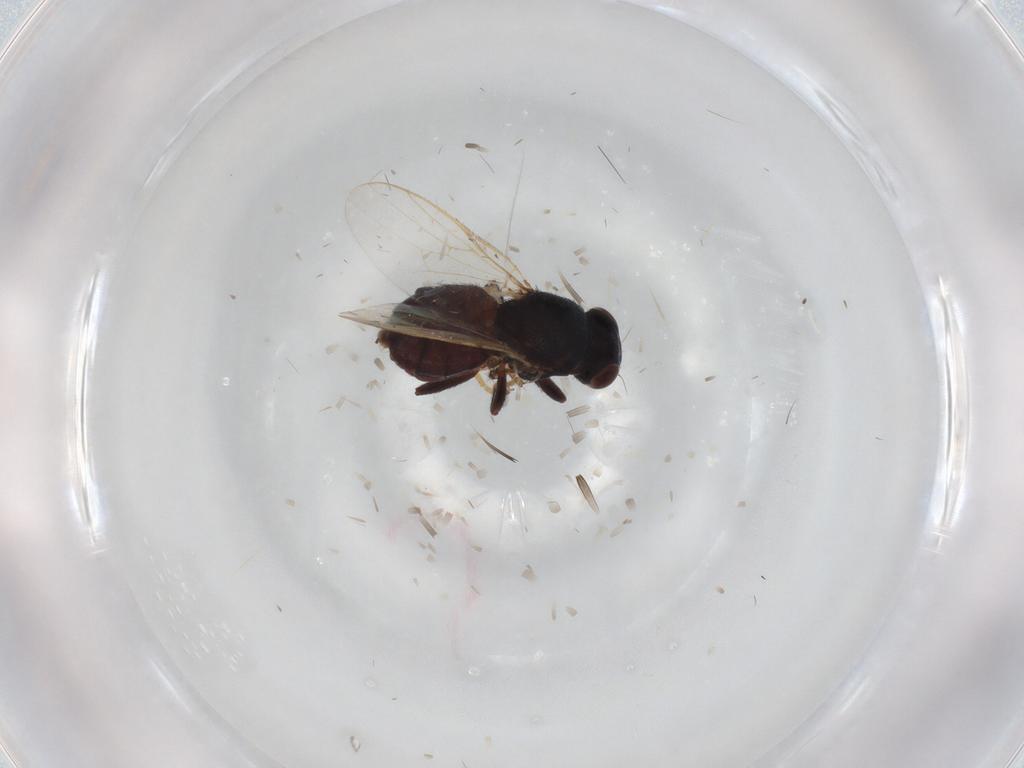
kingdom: Animalia
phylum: Arthropoda
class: Insecta
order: Diptera
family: Chloropidae
